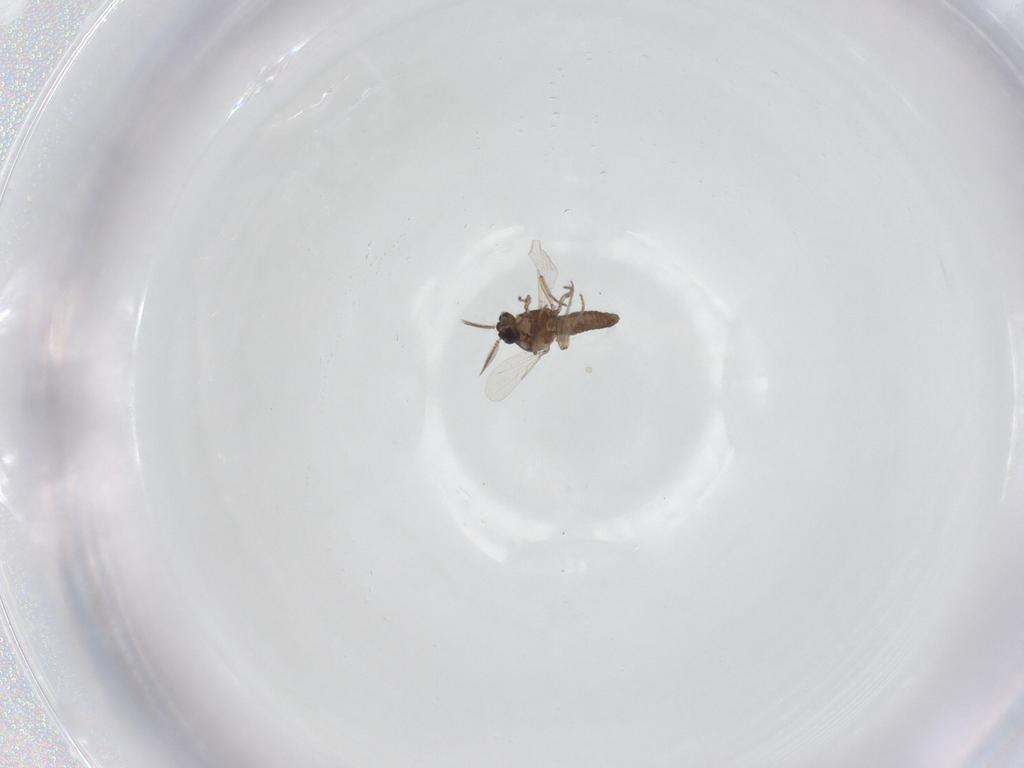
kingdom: Animalia
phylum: Arthropoda
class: Insecta
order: Diptera
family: Ceratopogonidae
